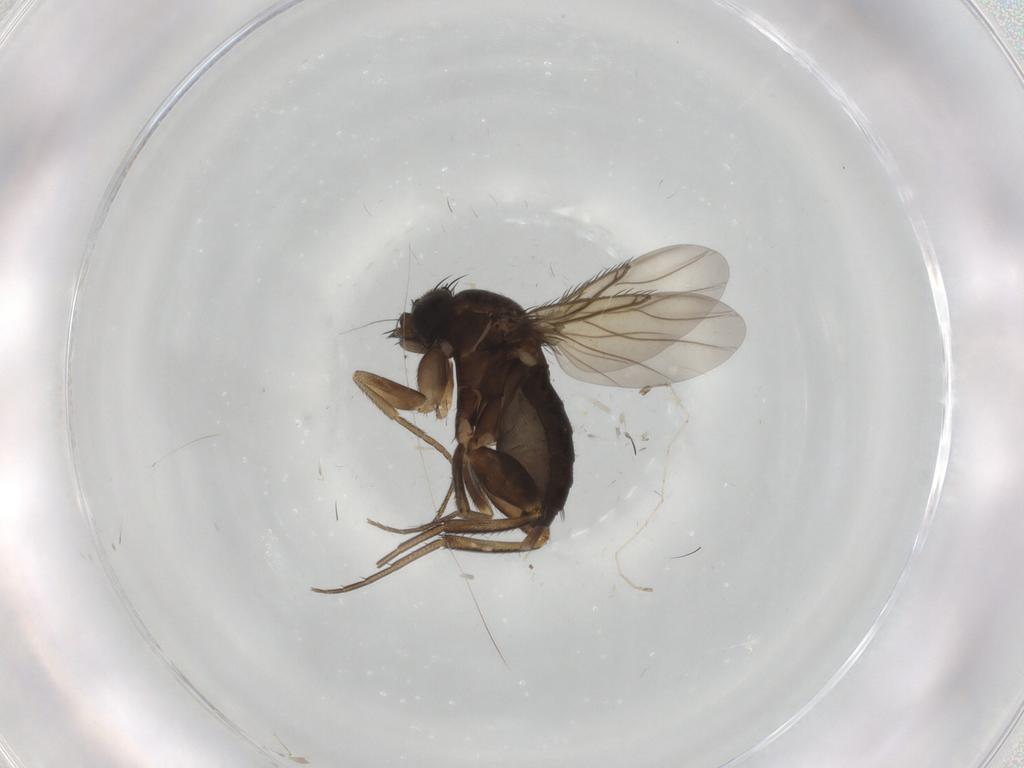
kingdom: Animalia
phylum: Arthropoda
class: Insecta
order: Diptera
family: Phoridae
